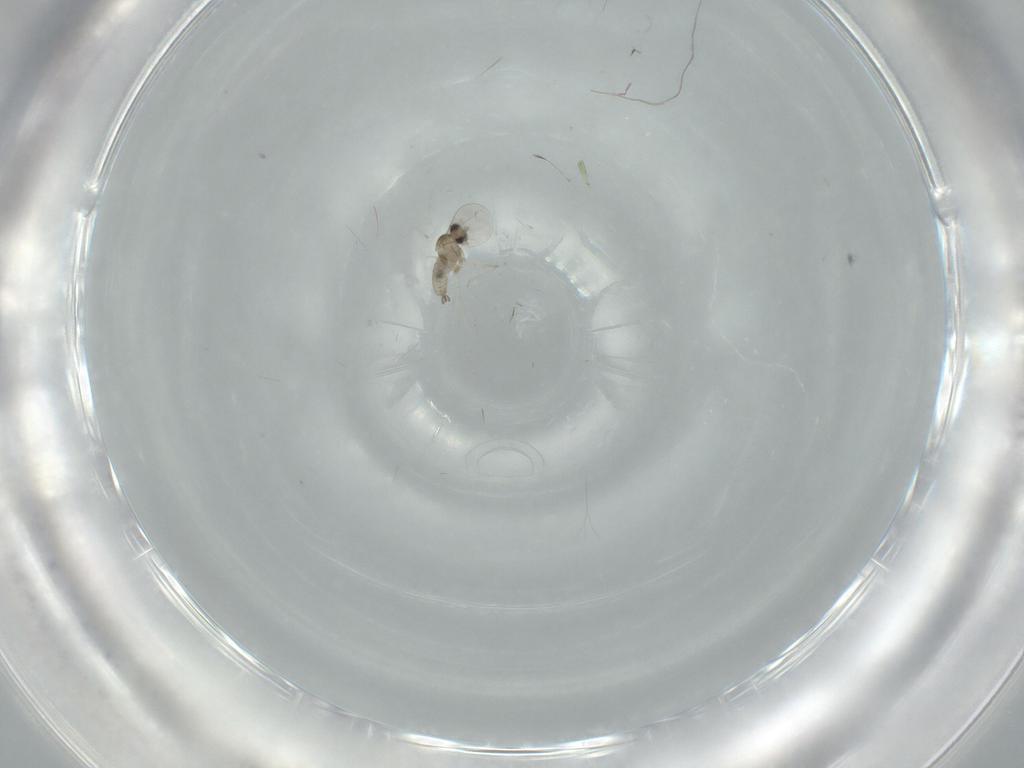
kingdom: Animalia
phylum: Arthropoda
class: Insecta
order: Diptera
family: Cecidomyiidae
